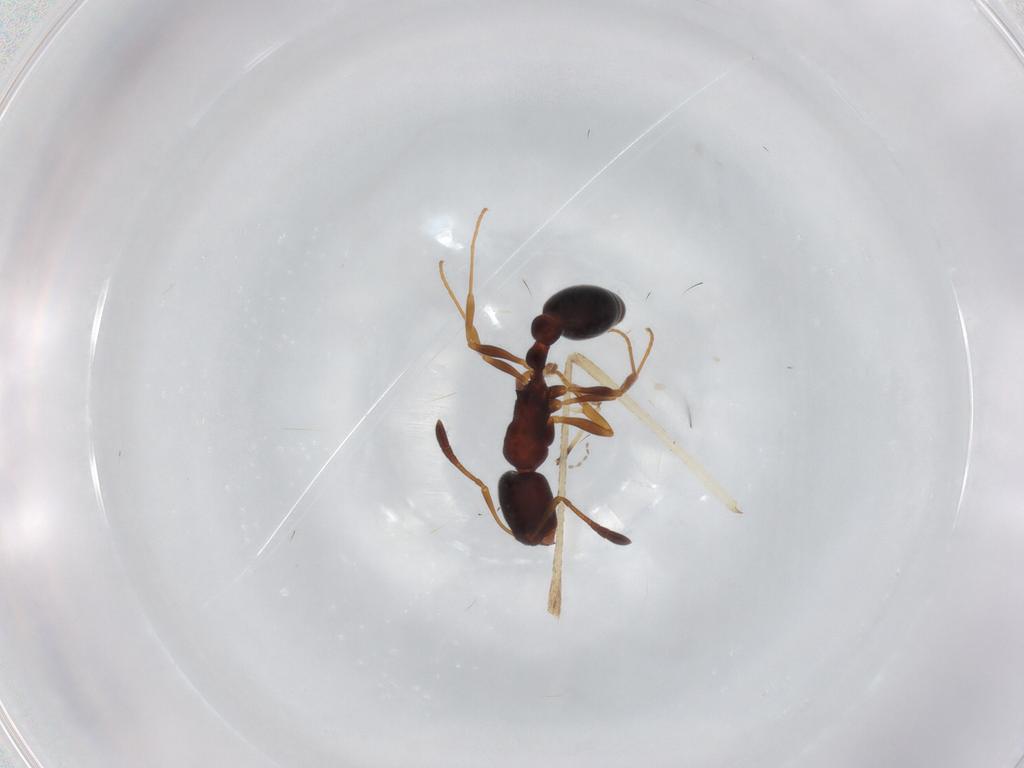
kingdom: Animalia
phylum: Arthropoda
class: Insecta
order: Hymenoptera
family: Formicidae
